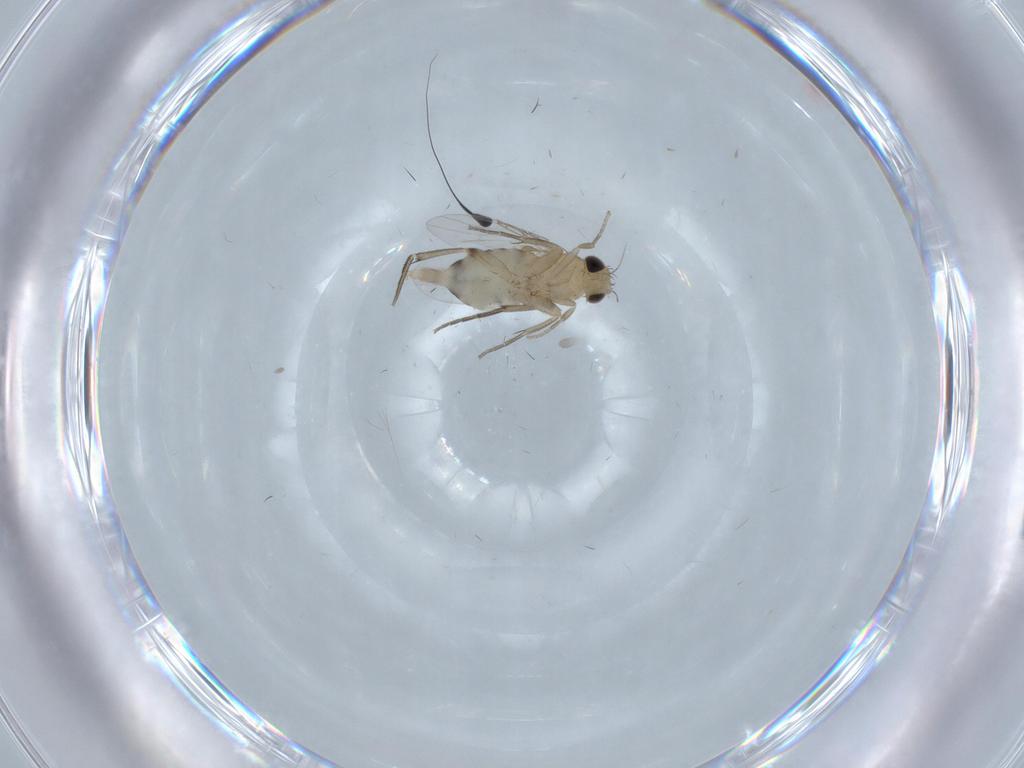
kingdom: Animalia
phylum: Arthropoda
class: Insecta
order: Diptera
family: Dolichopodidae
